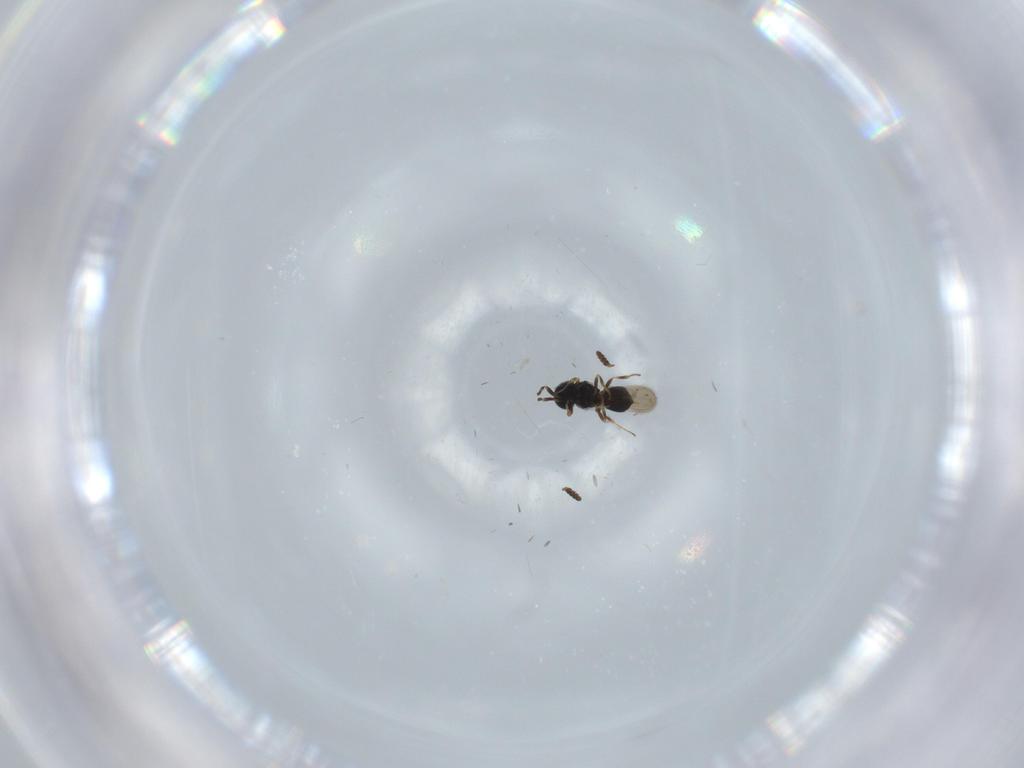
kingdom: Animalia
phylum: Arthropoda
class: Insecta
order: Hymenoptera
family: Scelionidae
